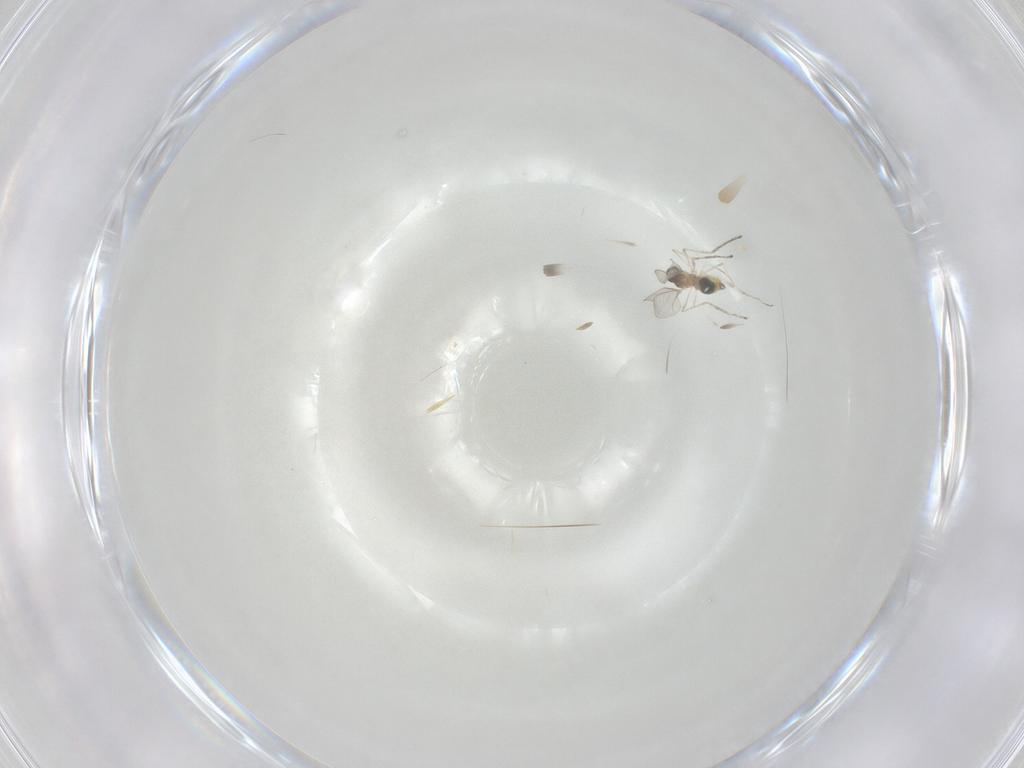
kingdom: Animalia
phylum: Arthropoda
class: Insecta
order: Diptera
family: Cecidomyiidae
